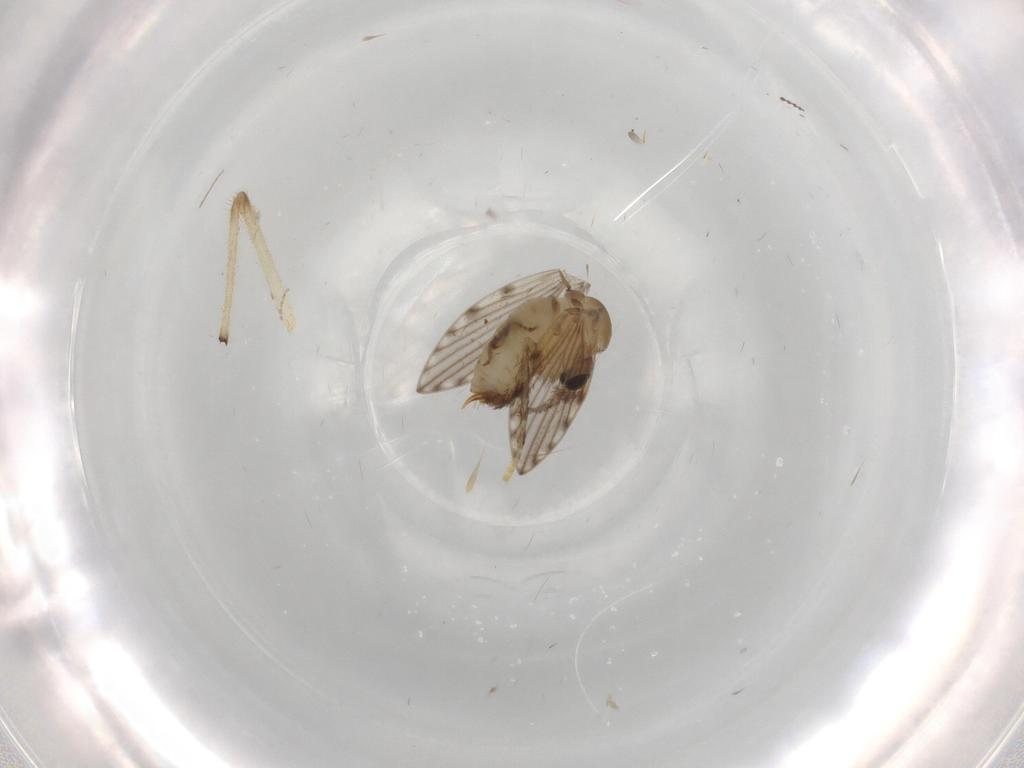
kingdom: Animalia
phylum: Arthropoda
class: Insecta
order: Diptera
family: Psychodidae
